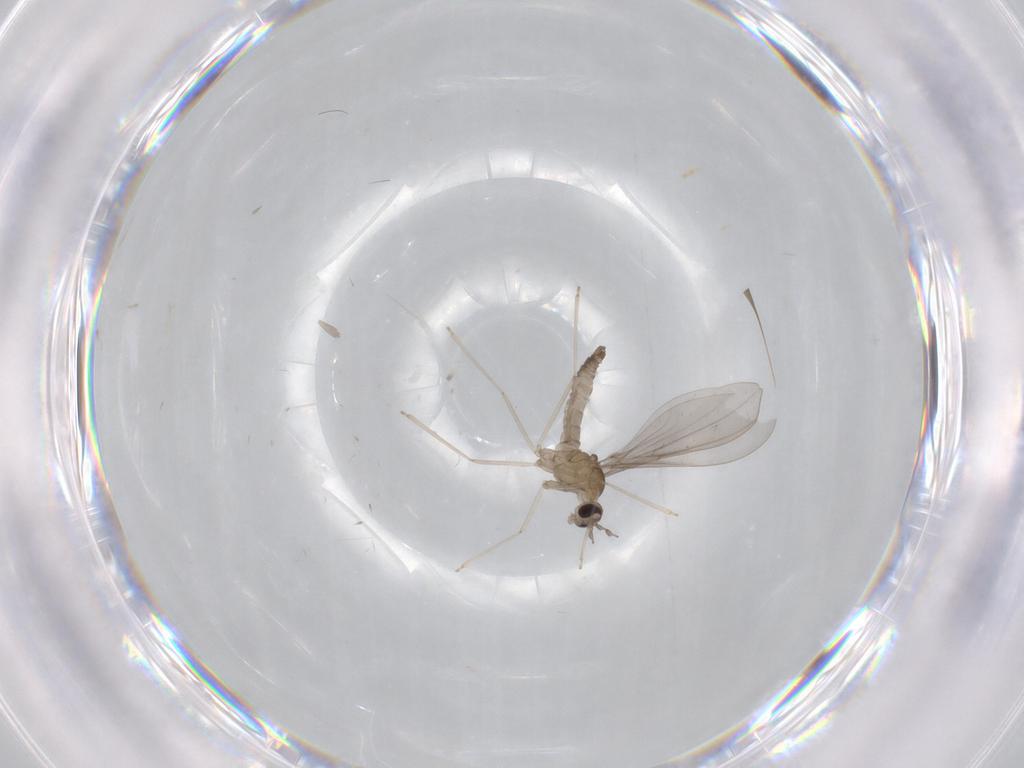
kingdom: Animalia
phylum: Arthropoda
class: Insecta
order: Diptera
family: Cecidomyiidae
